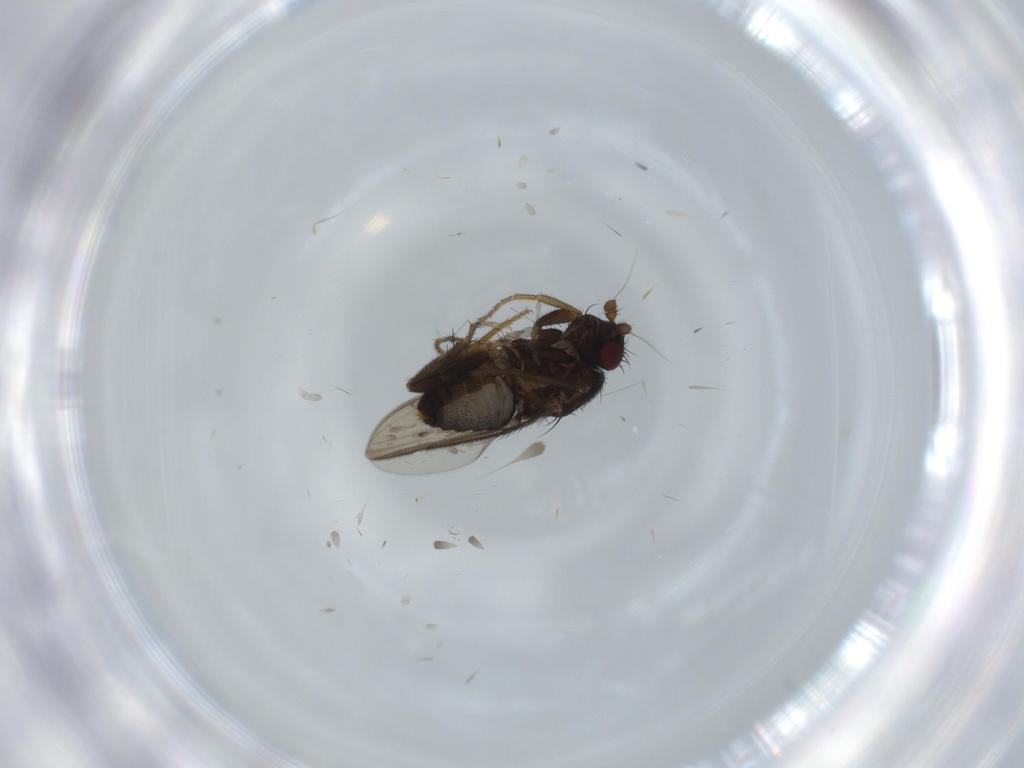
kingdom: Animalia
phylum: Arthropoda
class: Insecta
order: Diptera
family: Sphaeroceridae
